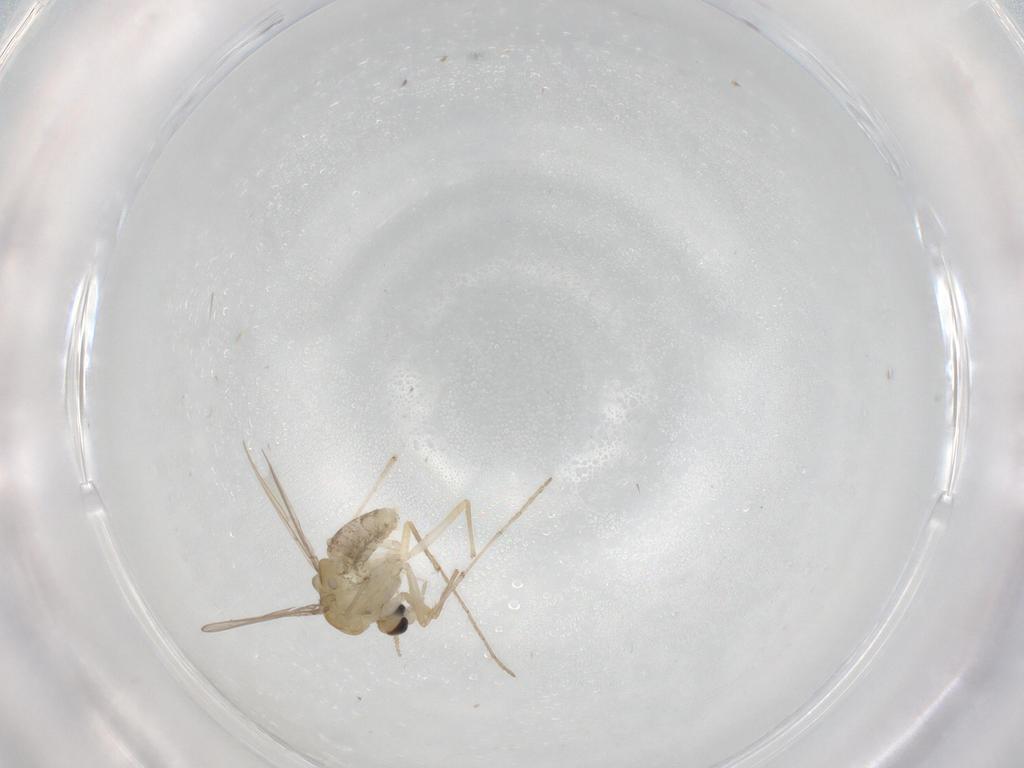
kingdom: Animalia
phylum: Arthropoda
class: Insecta
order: Diptera
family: Chironomidae
